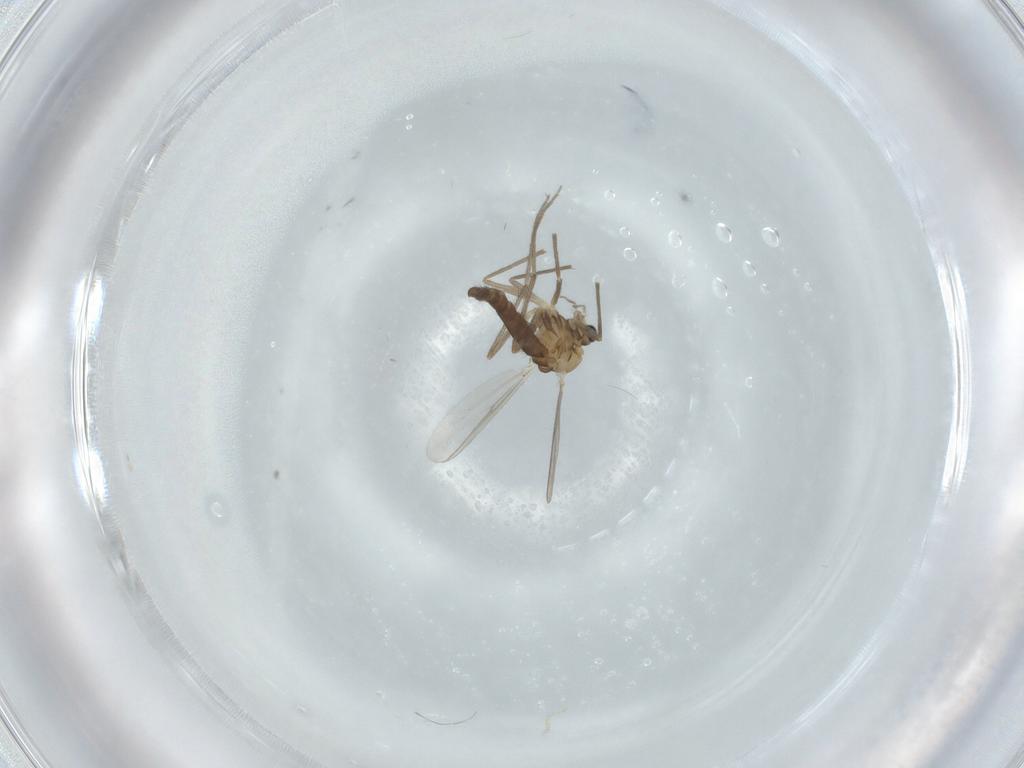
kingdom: Animalia
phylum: Arthropoda
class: Insecta
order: Diptera
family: Chironomidae
